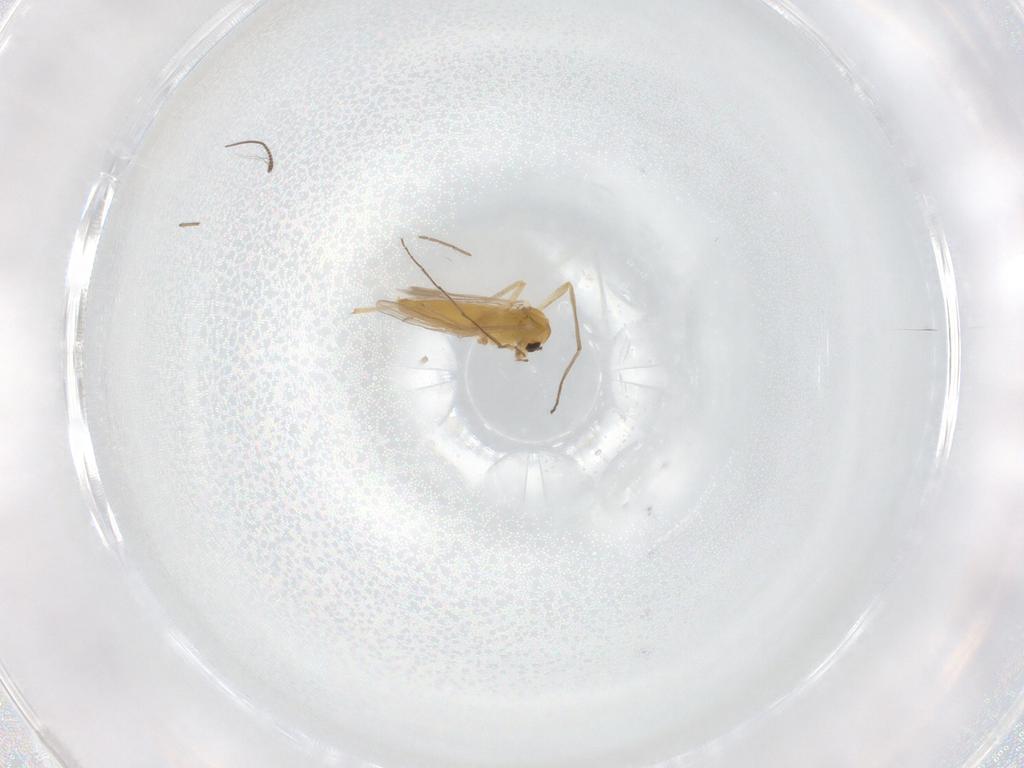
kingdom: Animalia
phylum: Arthropoda
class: Insecta
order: Diptera
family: Chironomidae
